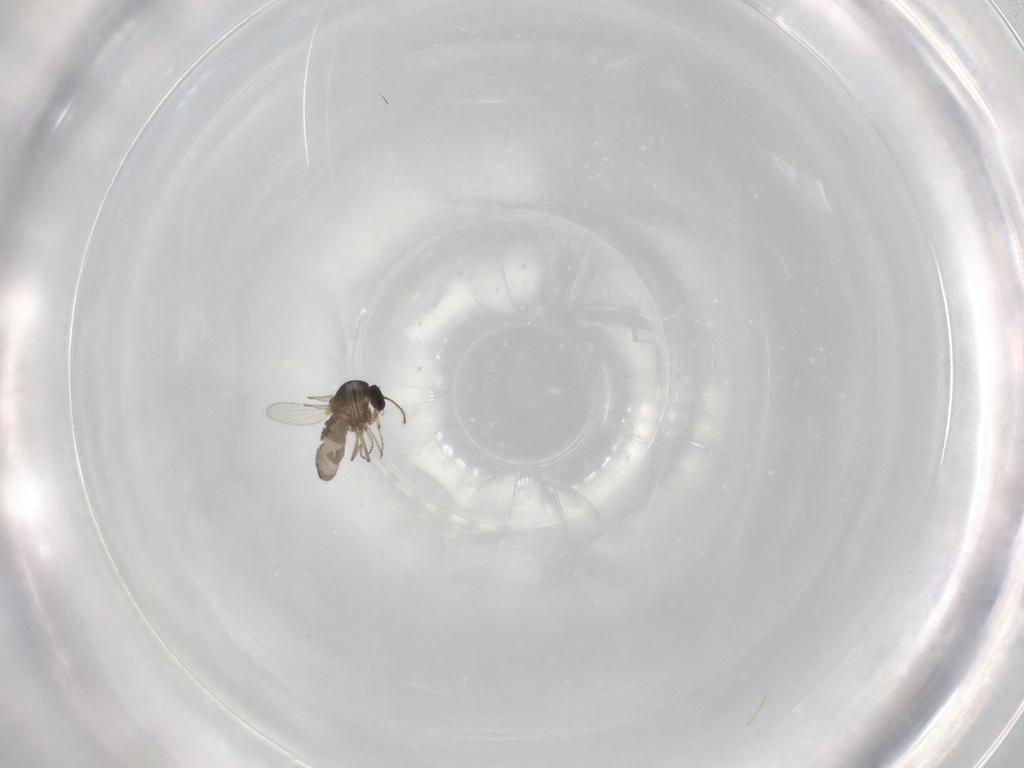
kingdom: Animalia
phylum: Arthropoda
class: Insecta
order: Diptera
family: Ceratopogonidae
